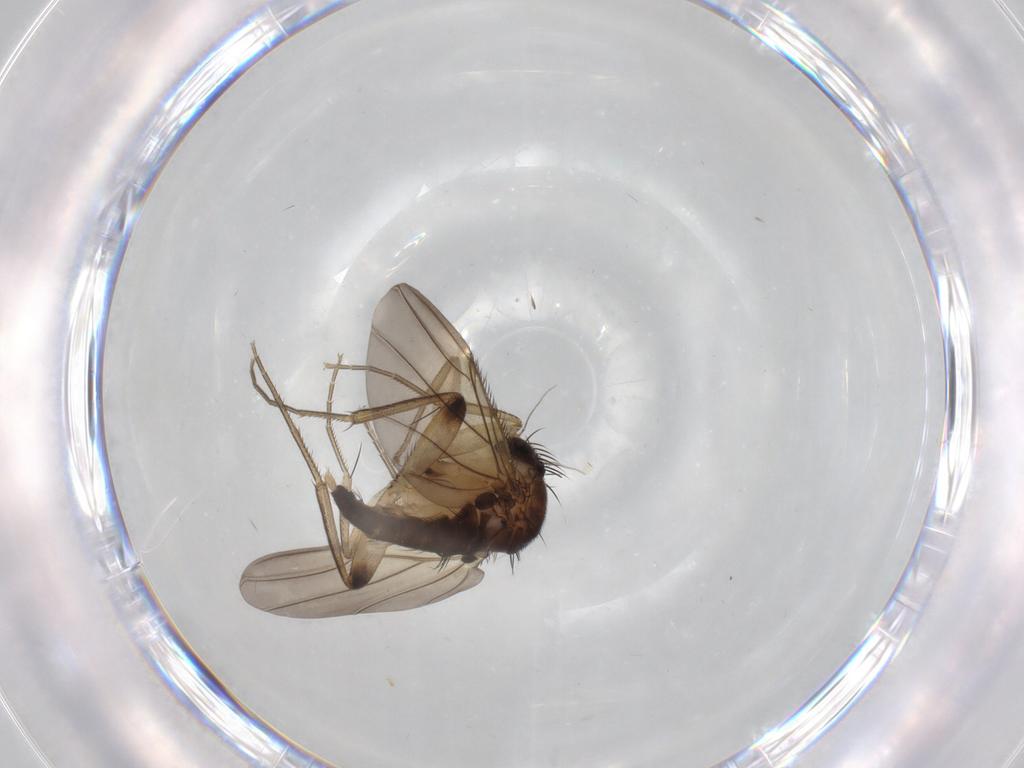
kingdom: Animalia
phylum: Arthropoda
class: Insecta
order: Diptera
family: Phoridae
